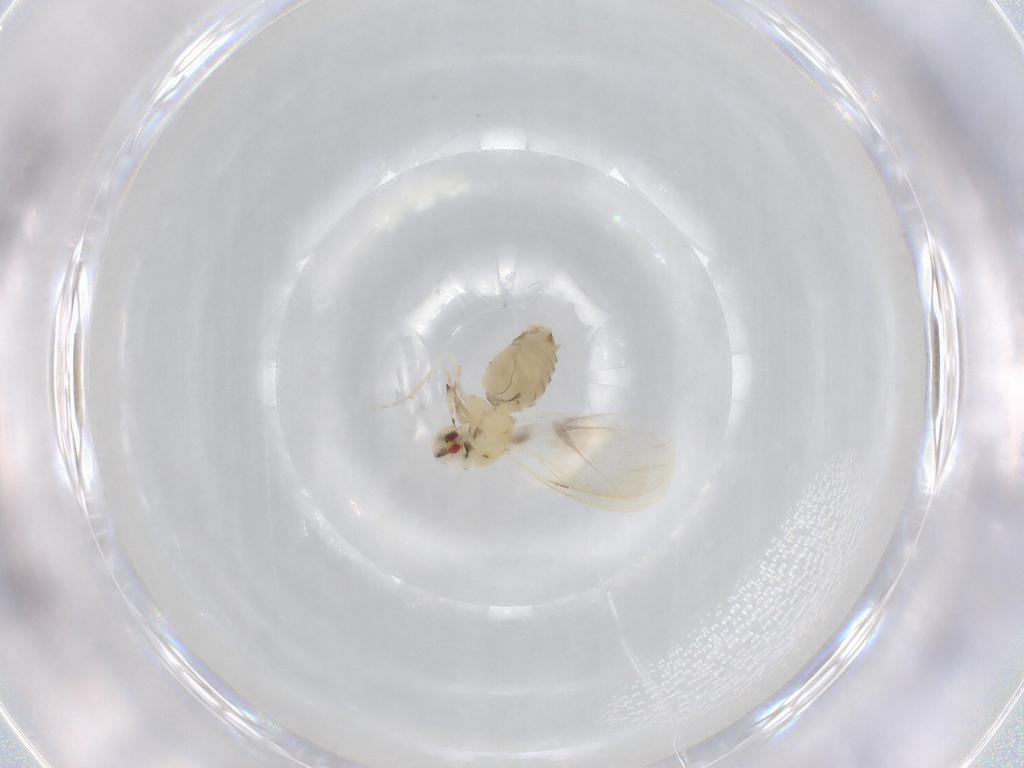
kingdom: Animalia
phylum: Arthropoda
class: Insecta
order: Hemiptera
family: Aleyrodidae
